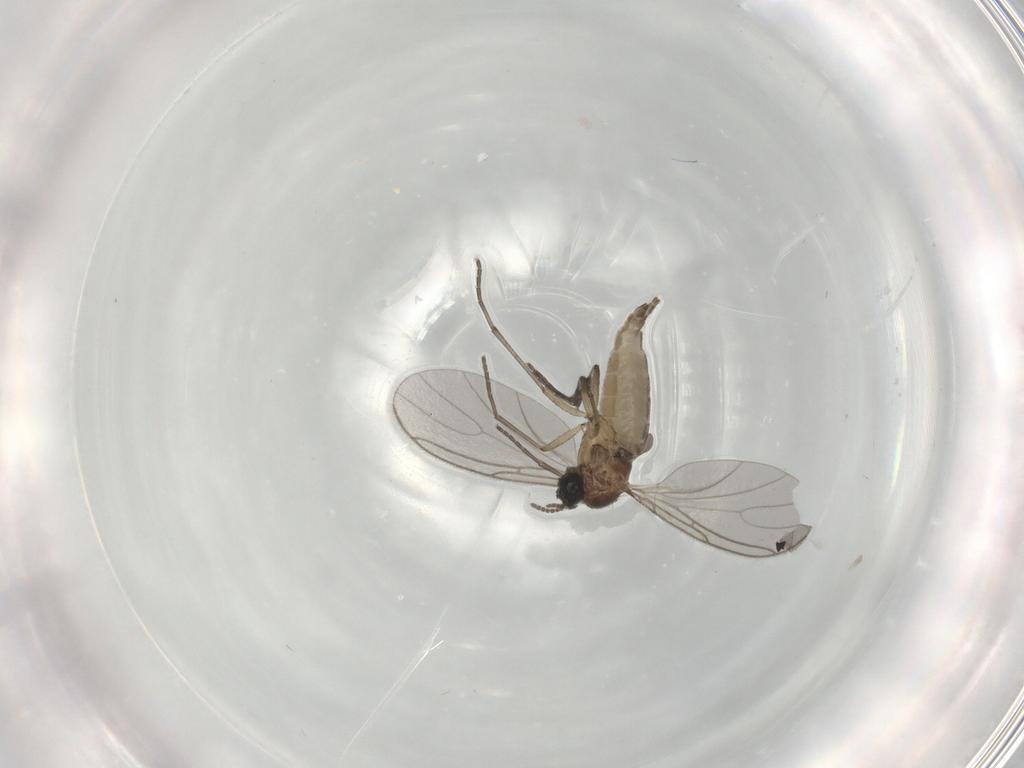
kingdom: Animalia
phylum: Arthropoda
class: Insecta
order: Diptera
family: Sciaridae
